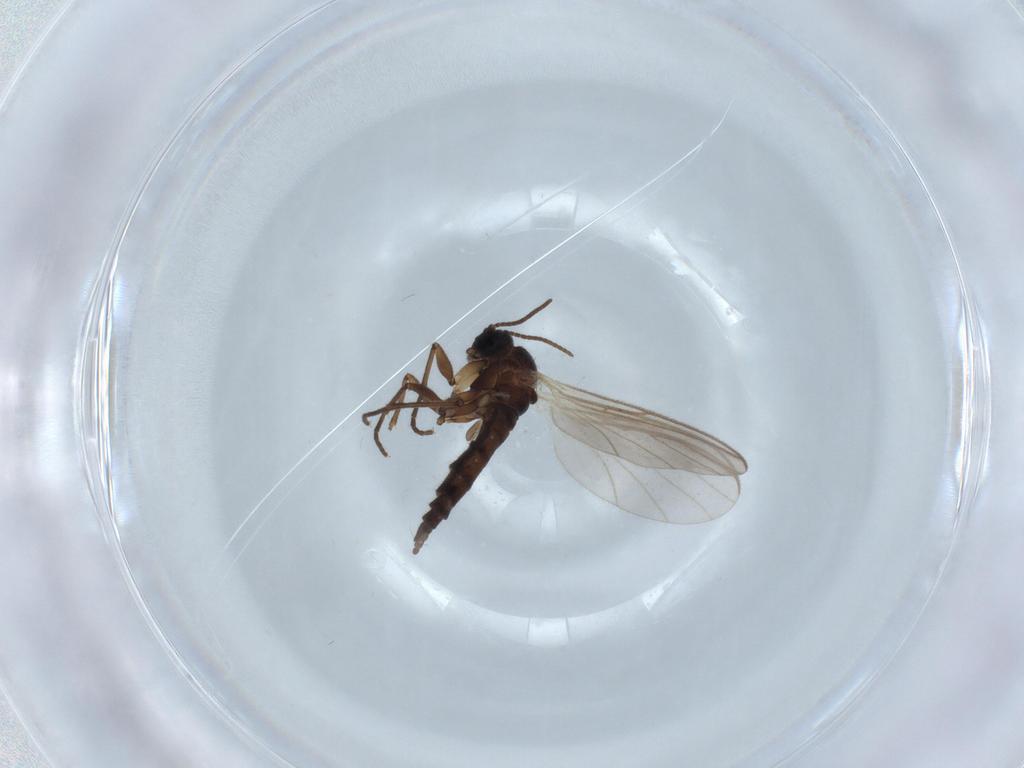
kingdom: Animalia
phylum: Arthropoda
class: Insecta
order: Diptera
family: Sciaridae
